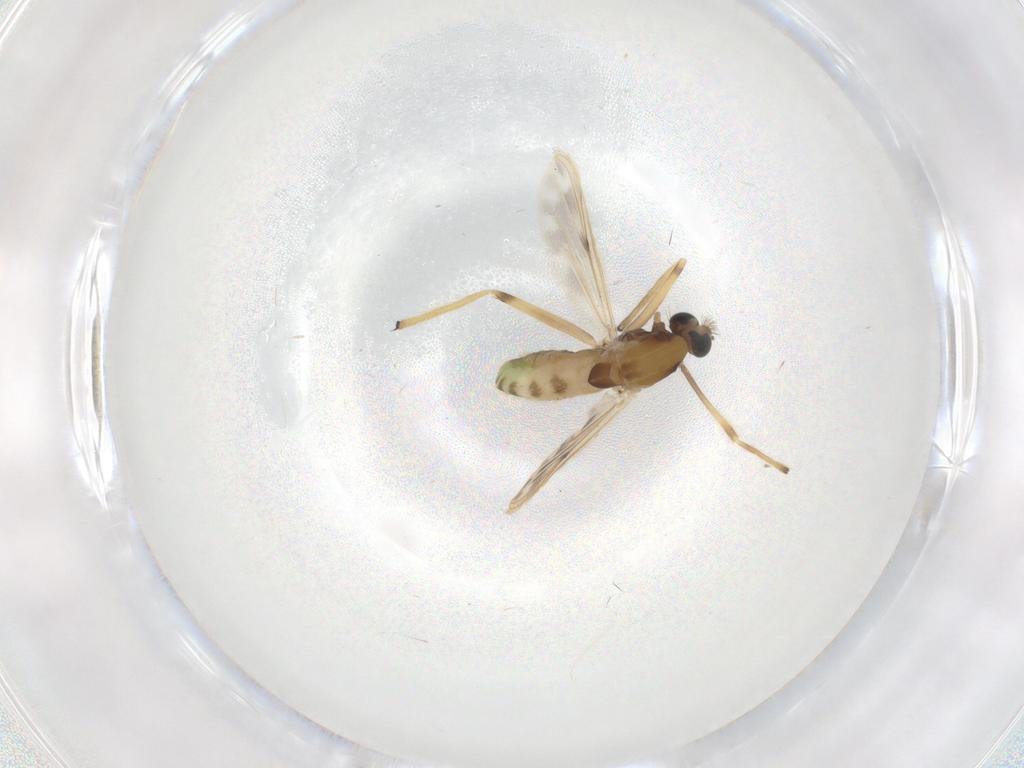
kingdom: Animalia
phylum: Arthropoda
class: Insecta
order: Diptera
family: Chironomidae
